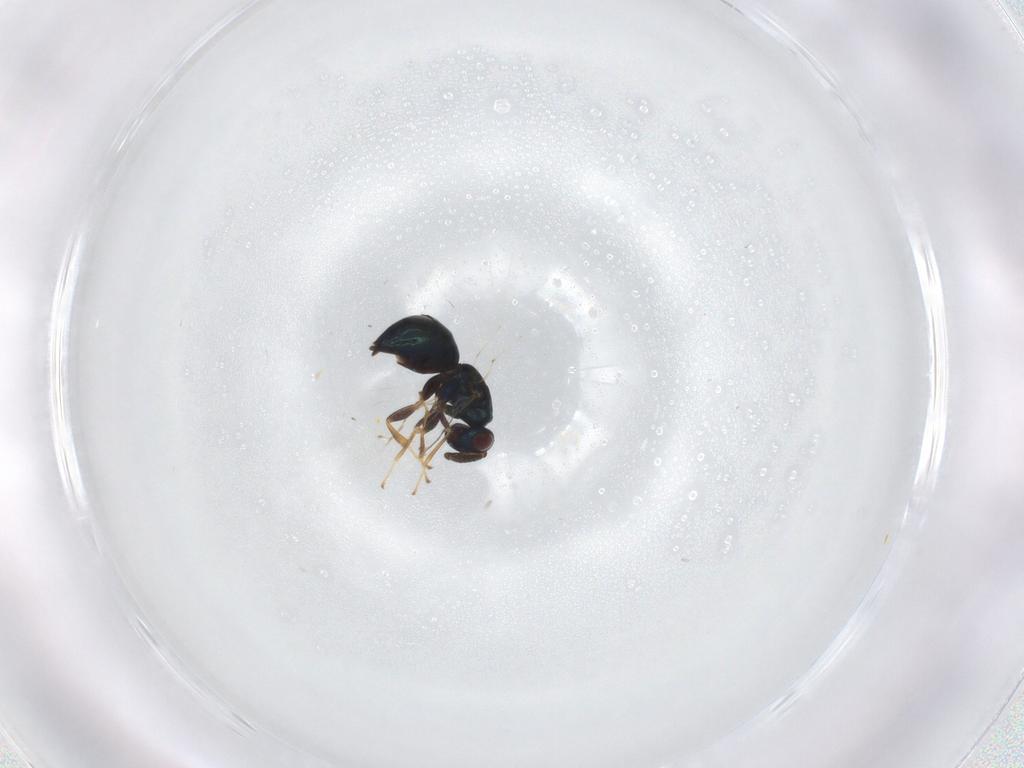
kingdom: Animalia
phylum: Arthropoda
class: Insecta
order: Hymenoptera
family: Pteromalidae
